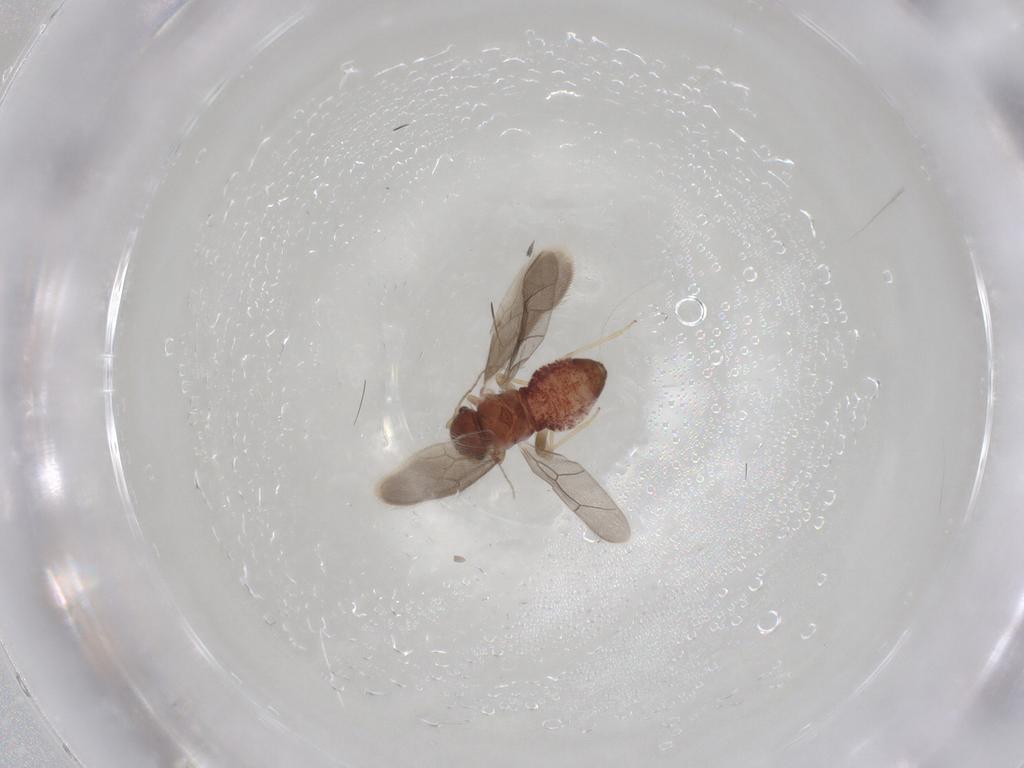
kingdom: Animalia
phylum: Arthropoda
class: Insecta
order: Psocodea
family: Archipsocidae
